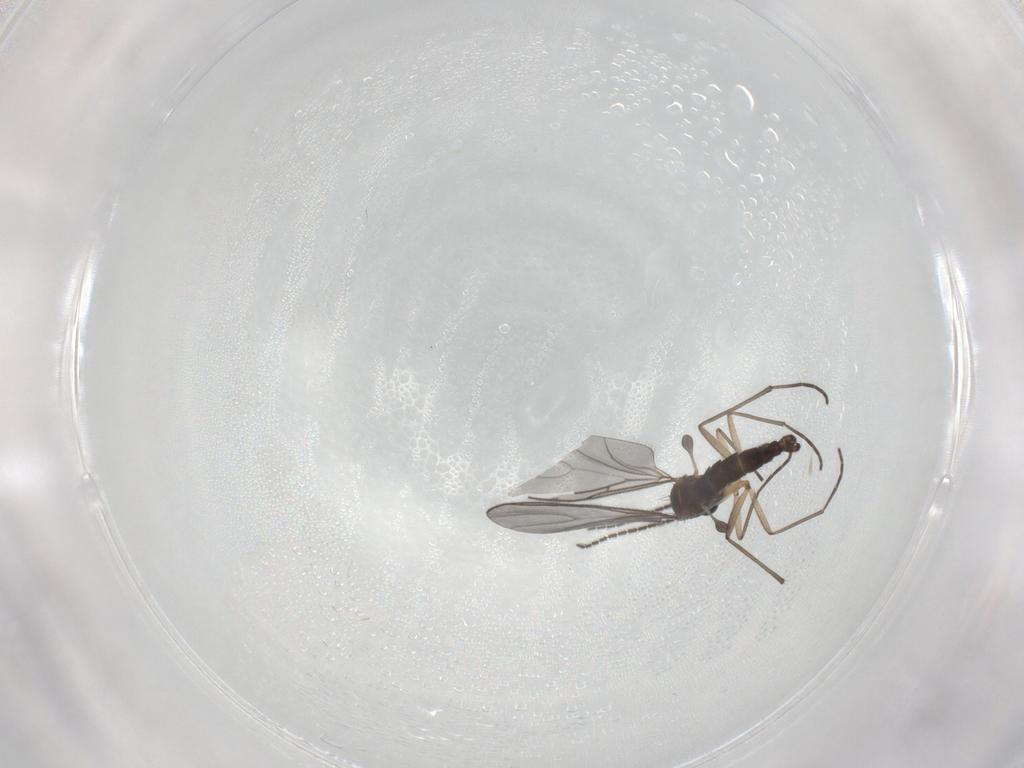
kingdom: Animalia
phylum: Arthropoda
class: Insecta
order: Diptera
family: Sciaridae
